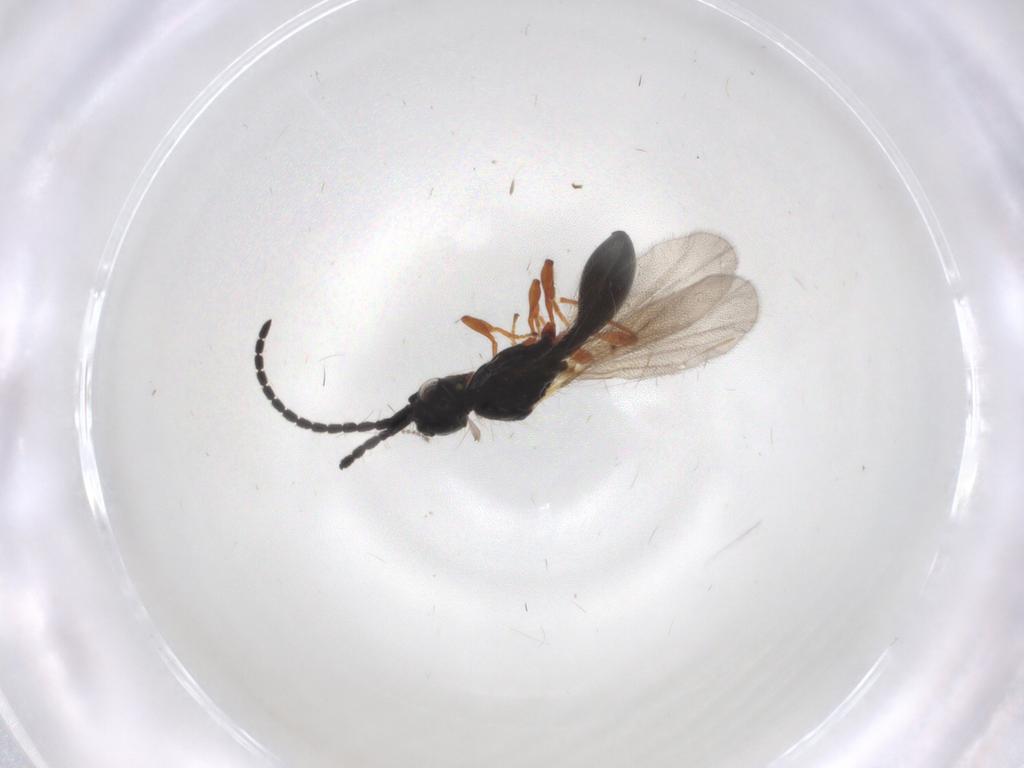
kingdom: Animalia
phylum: Arthropoda
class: Insecta
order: Hymenoptera
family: Diapriidae
